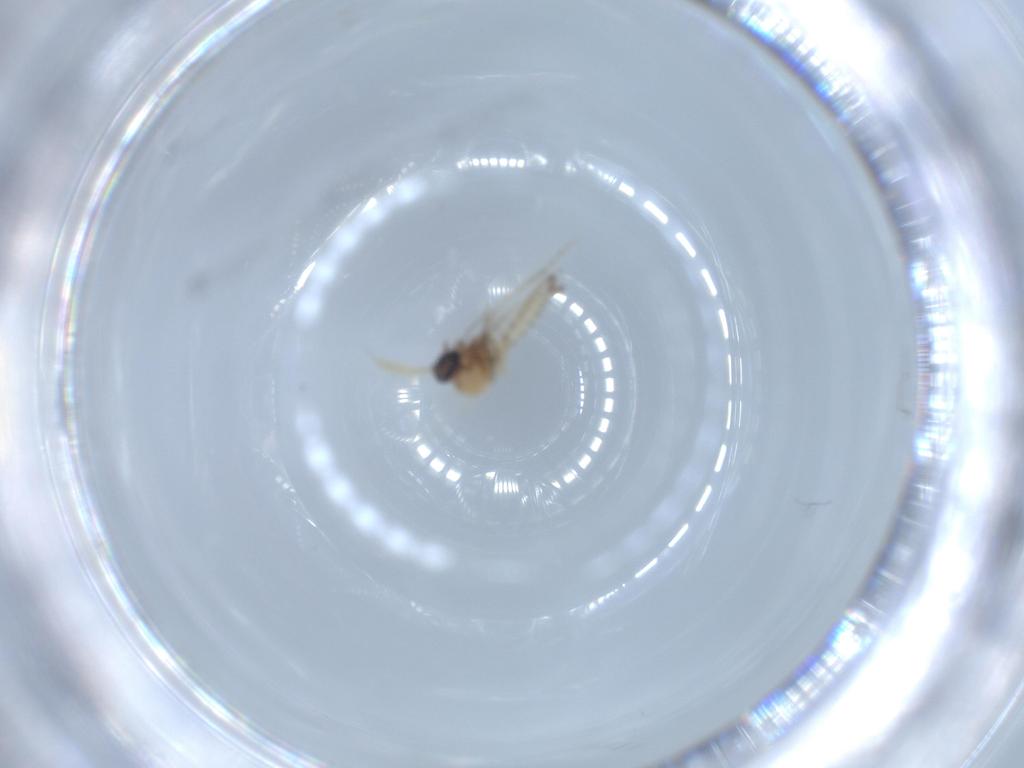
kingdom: Animalia
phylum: Arthropoda
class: Insecta
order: Diptera
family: Ceratopogonidae
